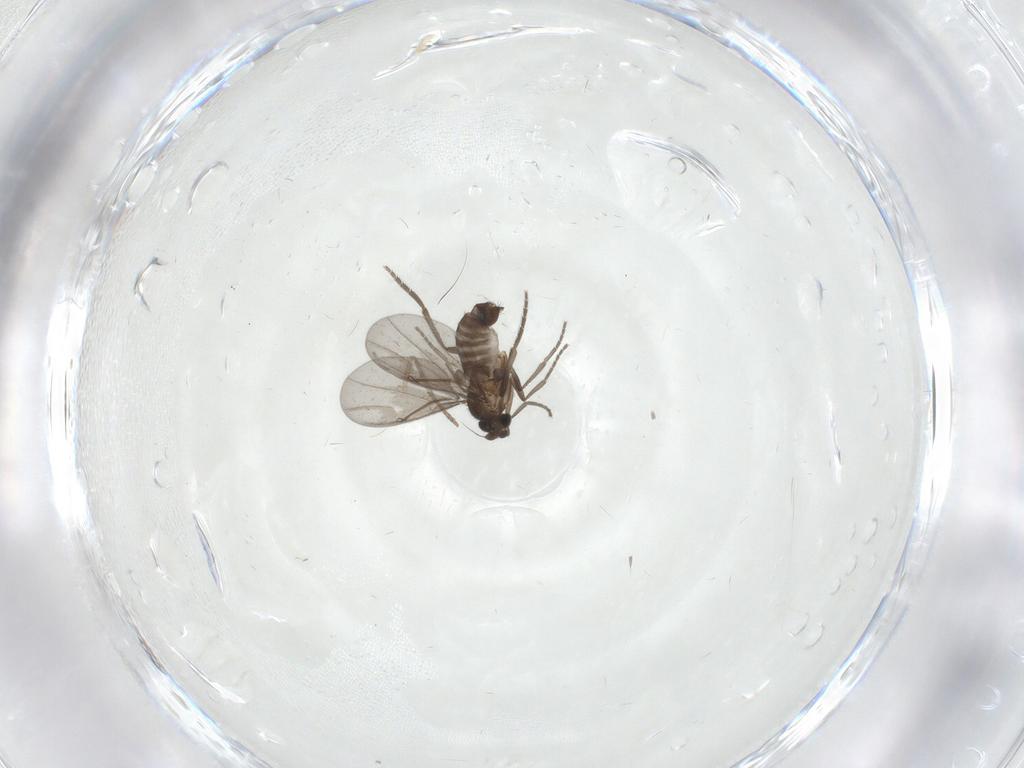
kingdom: Animalia
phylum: Arthropoda
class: Insecta
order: Diptera
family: Psychodidae
